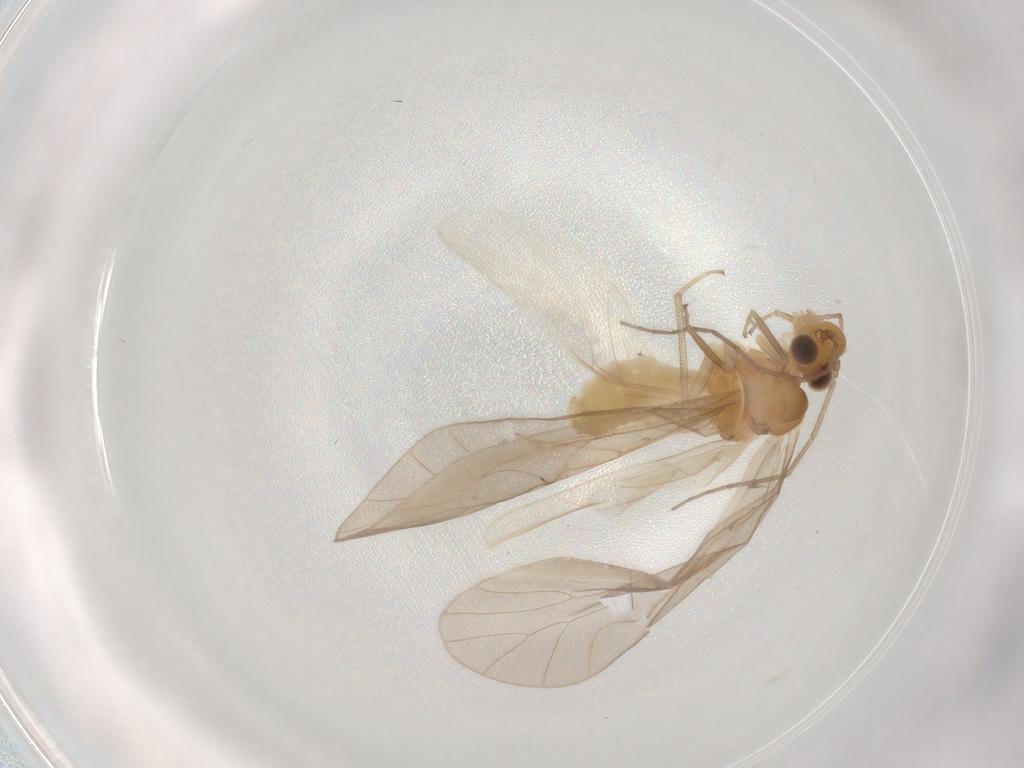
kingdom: Animalia
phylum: Arthropoda
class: Insecta
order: Psocodea
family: Caeciliusidae
